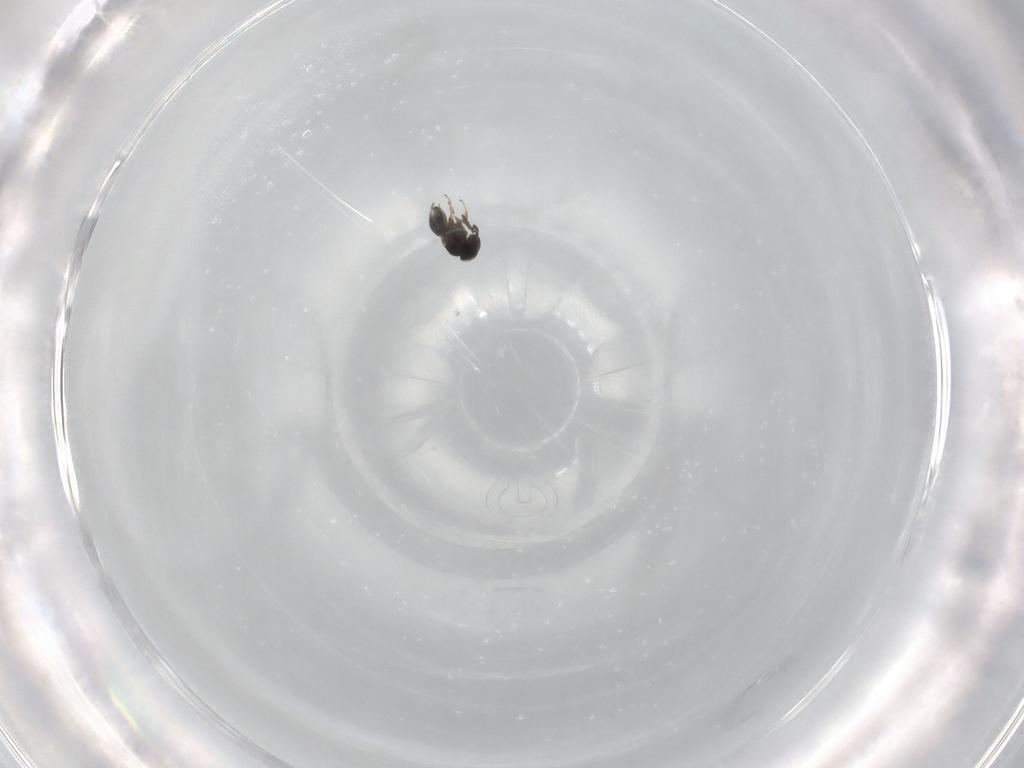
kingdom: Animalia
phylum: Arthropoda
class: Insecta
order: Hymenoptera
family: Scelionidae
